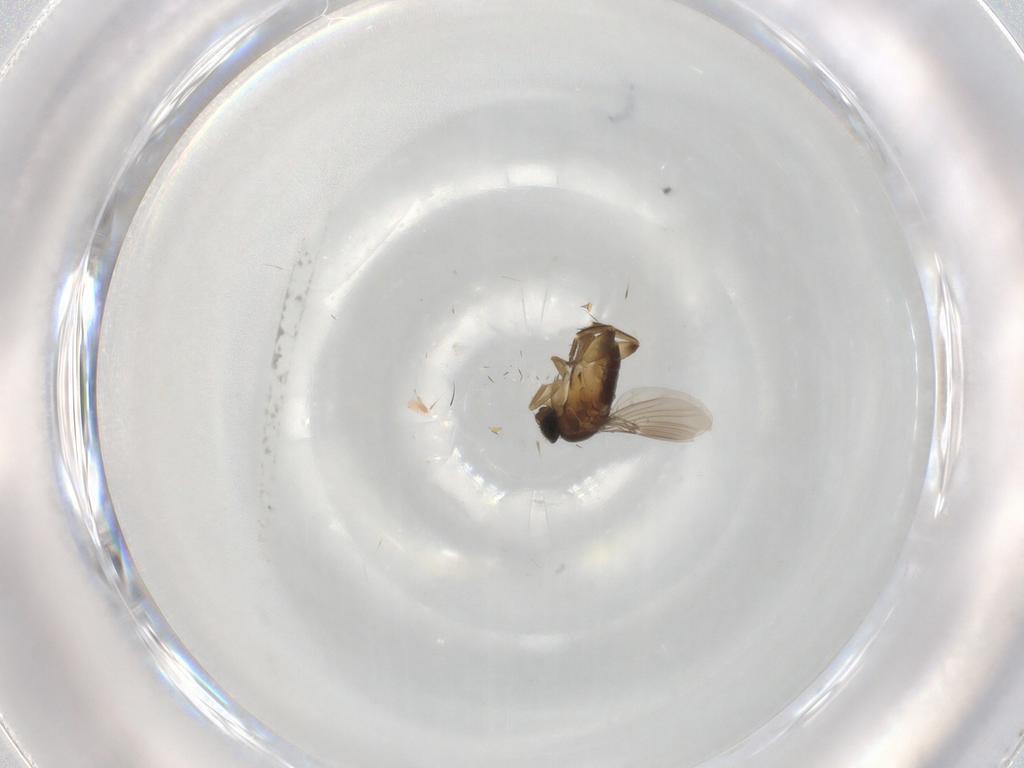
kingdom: Animalia
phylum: Arthropoda
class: Insecta
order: Diptera
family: Phoridae
